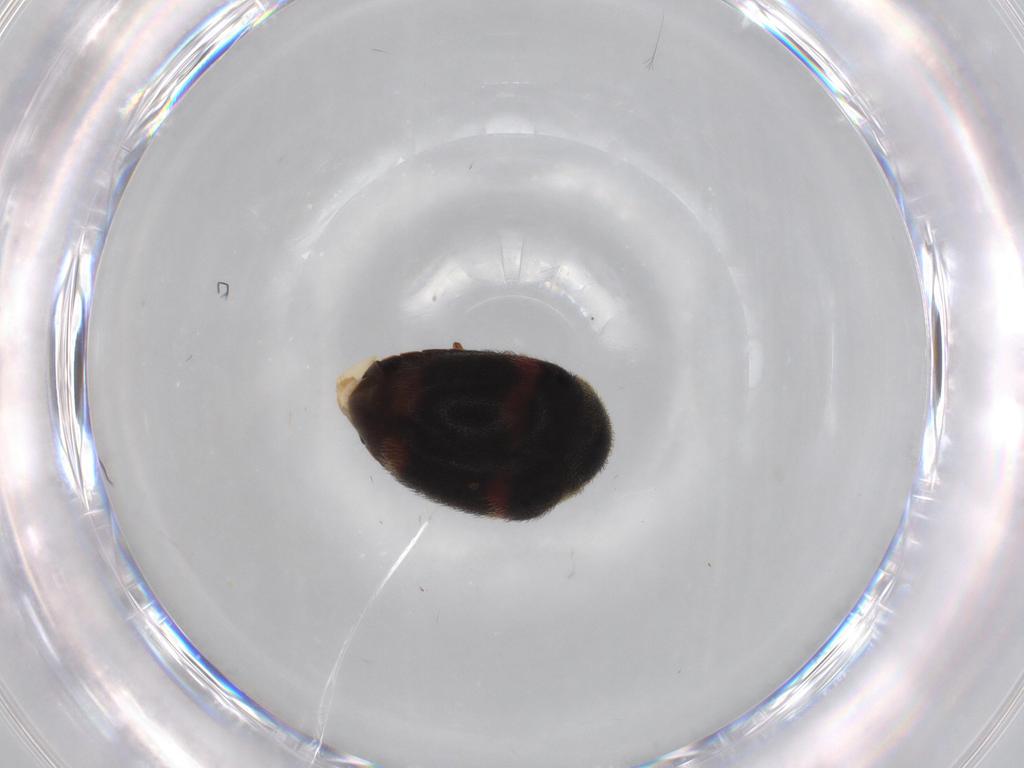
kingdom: Animalia
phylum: Arthropoda
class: Insecta
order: Coleoptera
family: Dermestidae
